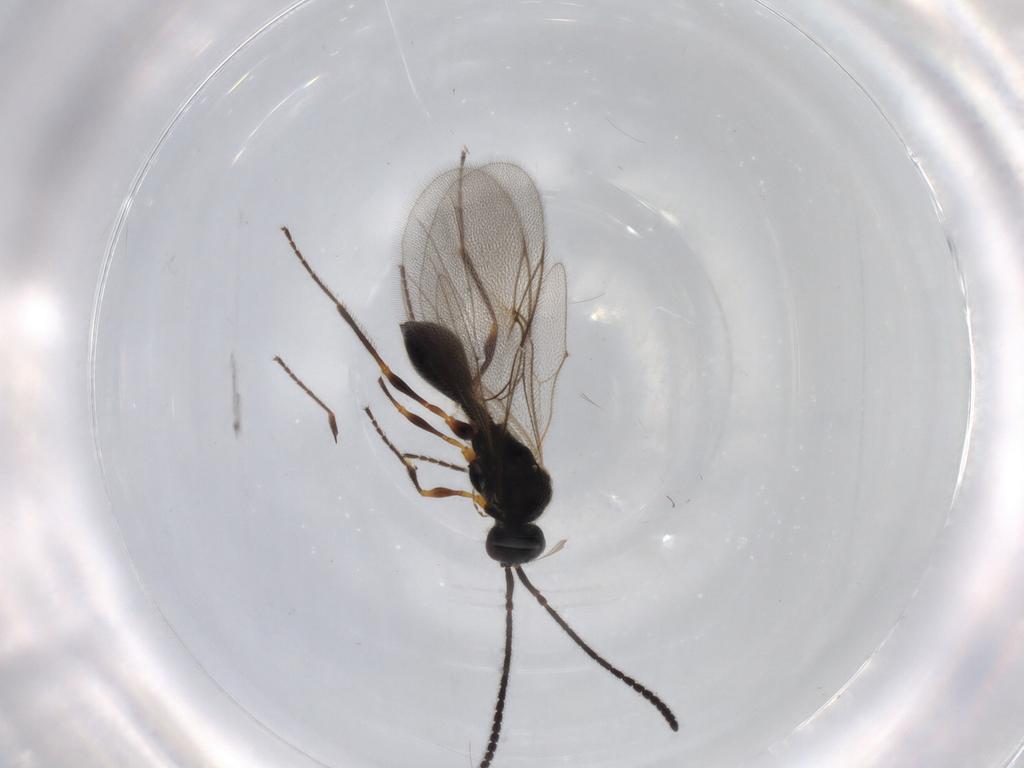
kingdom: Animalia
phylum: Arthropoda
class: Insecta
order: Hymenoptera
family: Diapriidae
